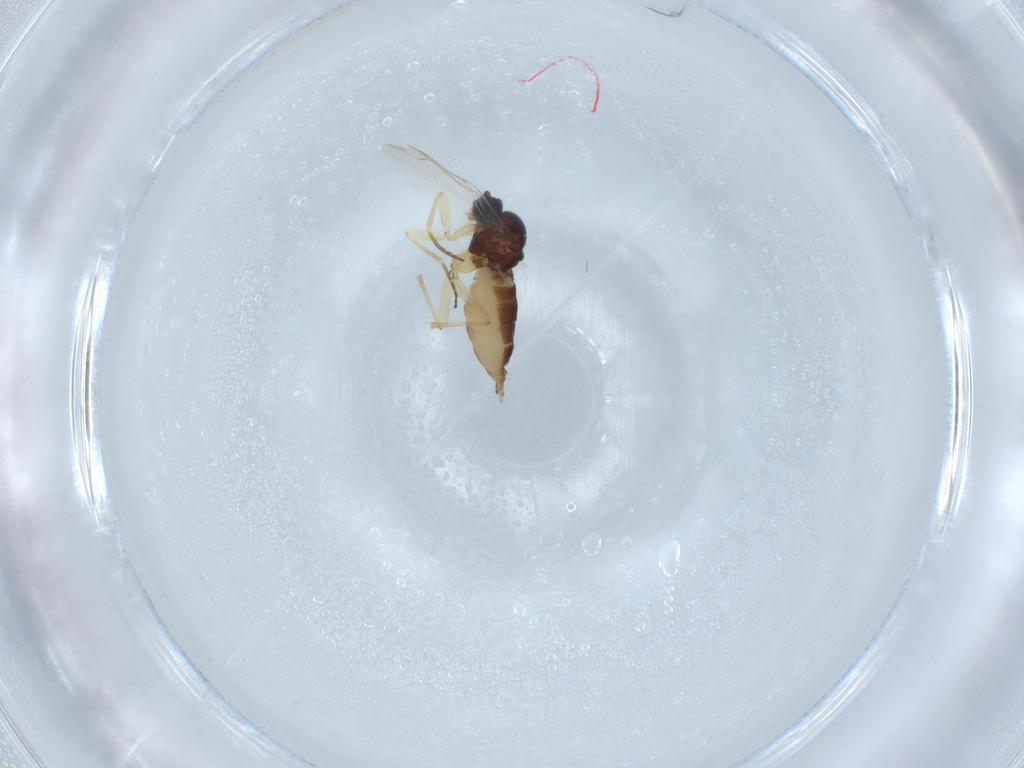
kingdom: Animalia
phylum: Arthropoda
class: Insecta
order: Diptera
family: Sciaridae
